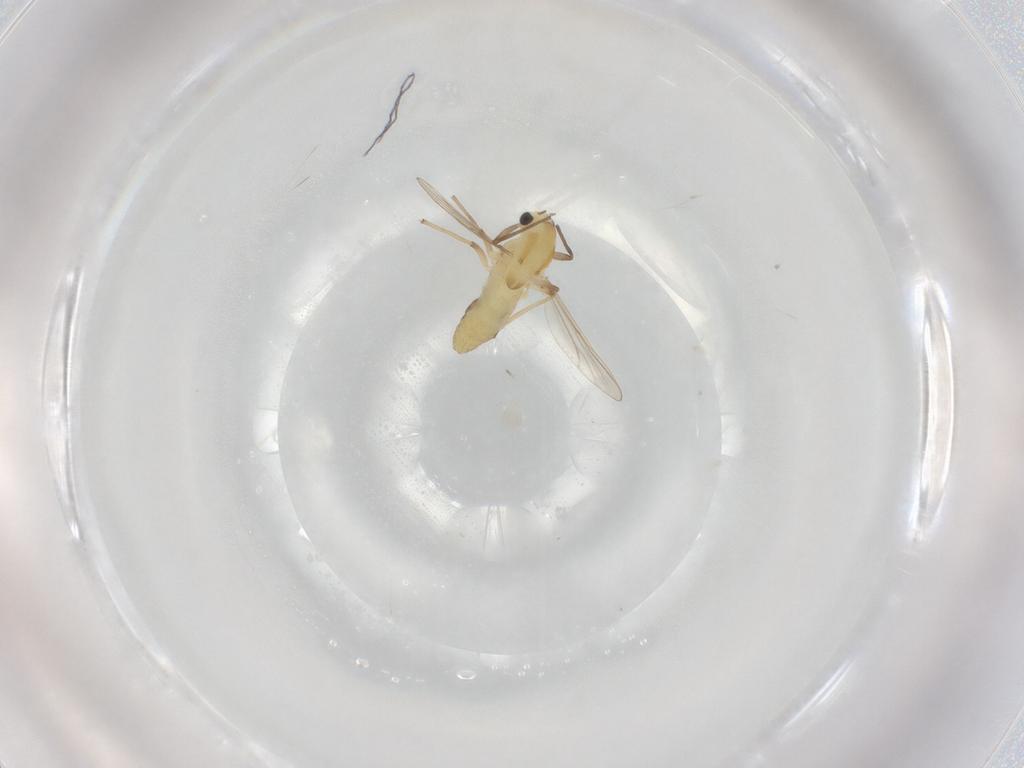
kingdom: Animalia
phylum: Arthropoda
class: Insecta
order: Diptera
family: Chironomidae
